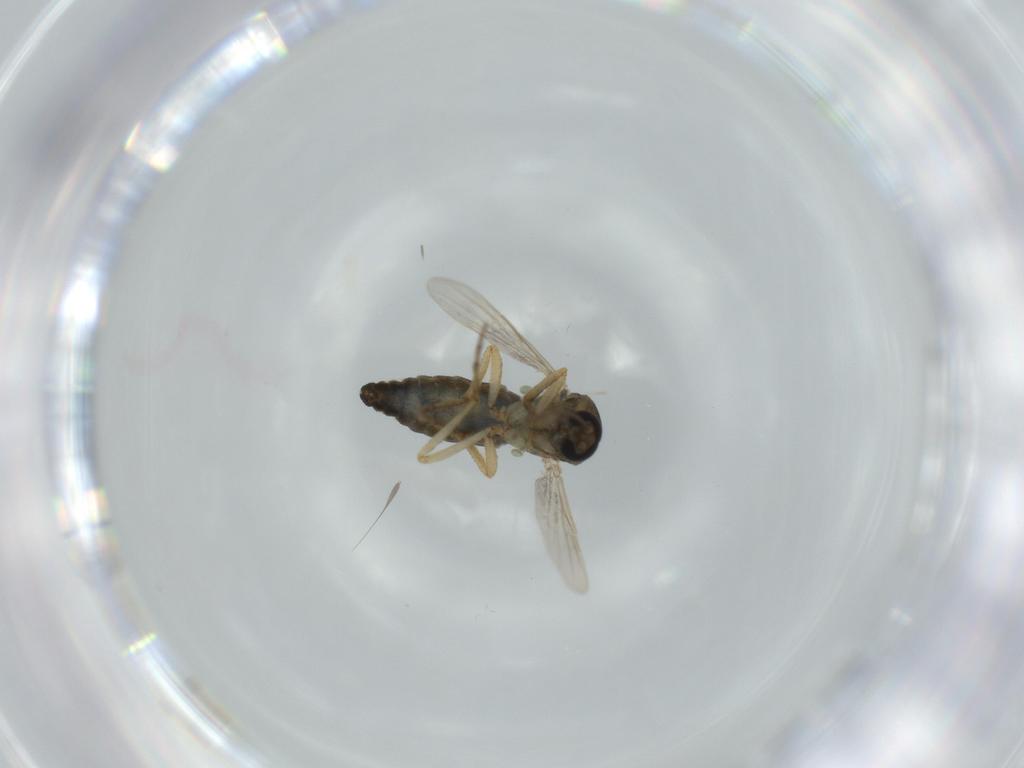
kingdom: Animalia
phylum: Arthropoda
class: Insecta
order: Diptera
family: Ceratopogonidae
